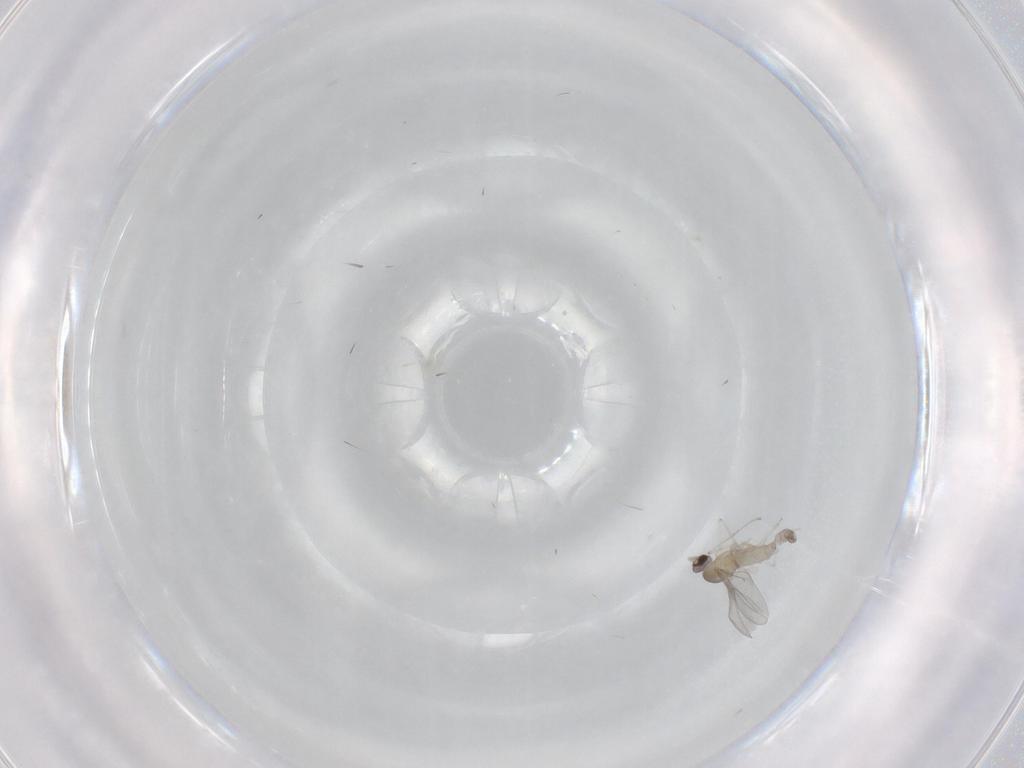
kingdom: Animalia
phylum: Arthropoda
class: Insecta
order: Diptera
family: Cecidomyiidae
